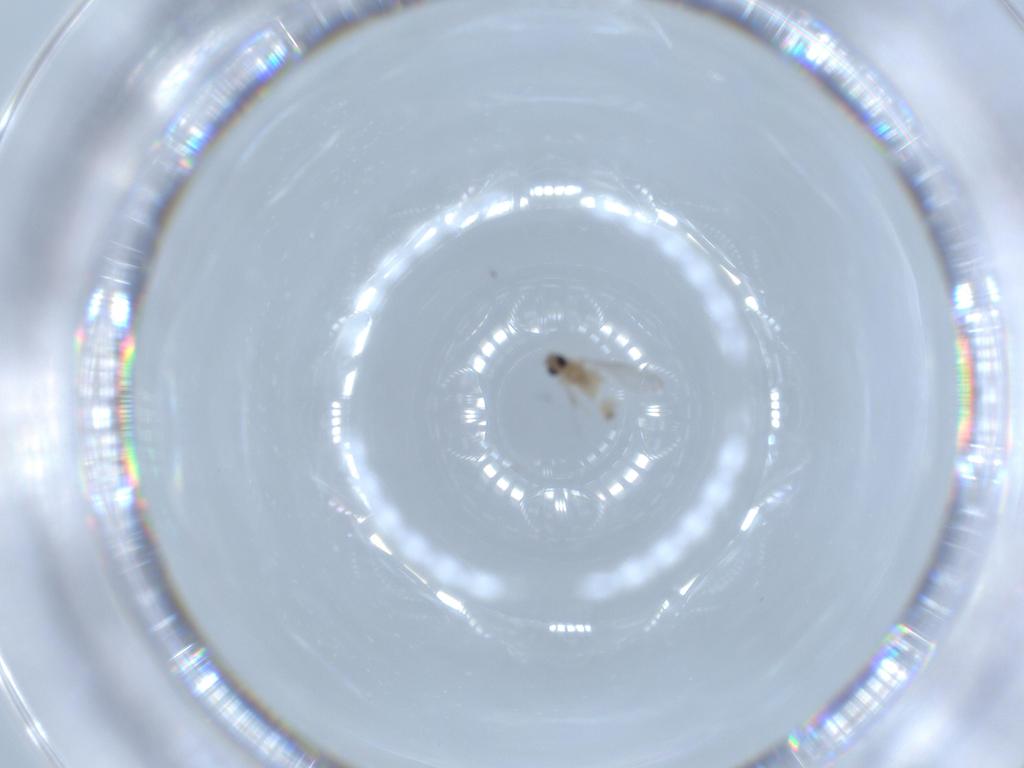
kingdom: Animalia
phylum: Arthropoda
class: Insecta
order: Diptera
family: Cecidomyiidae
